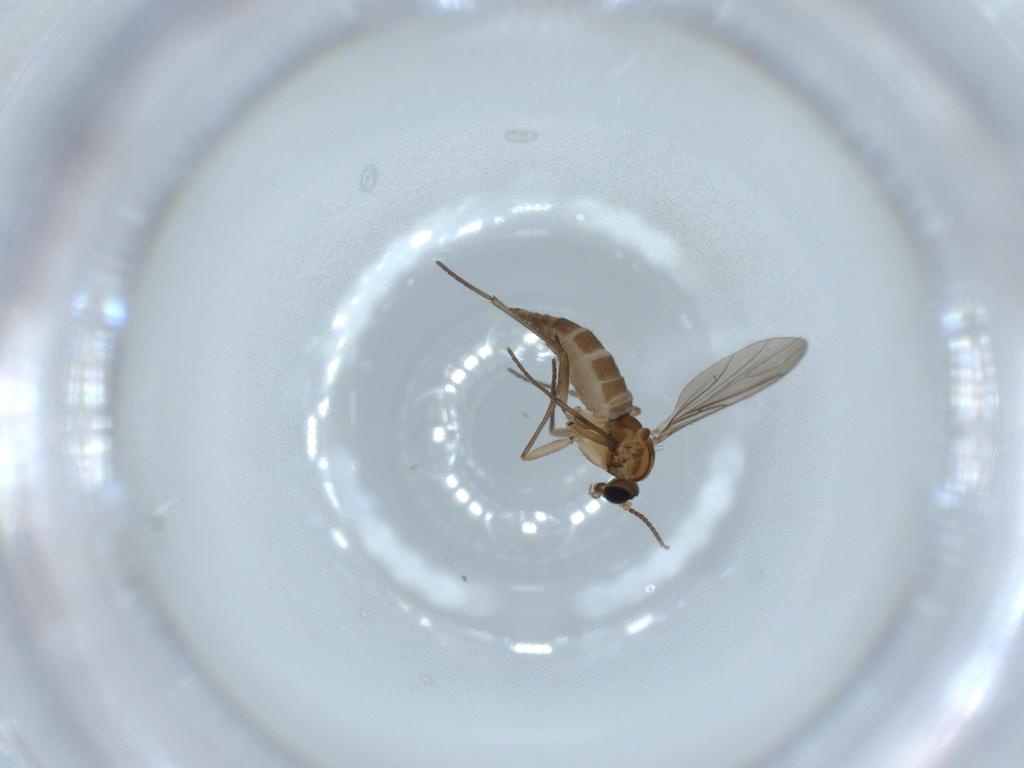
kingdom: Animalia
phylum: Arthropoda
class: Insecta
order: Diptera
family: Sciaridae
